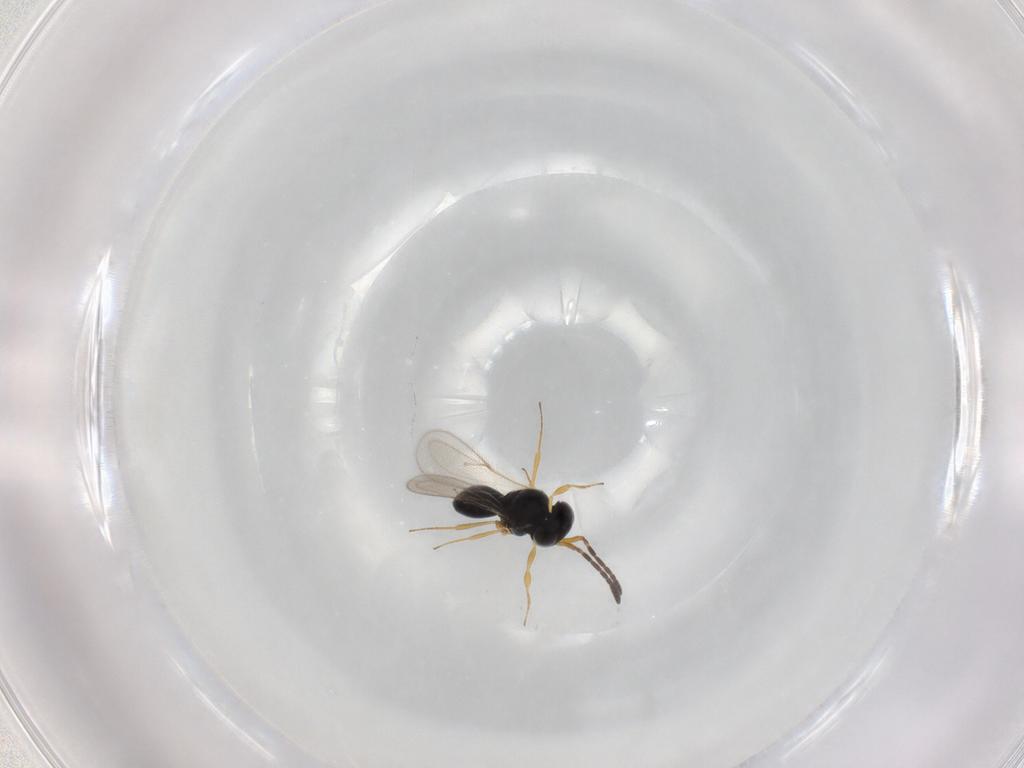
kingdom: Animalia
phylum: Arthropoda
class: Insecta
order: Hymenoptera
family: Scelionidae
